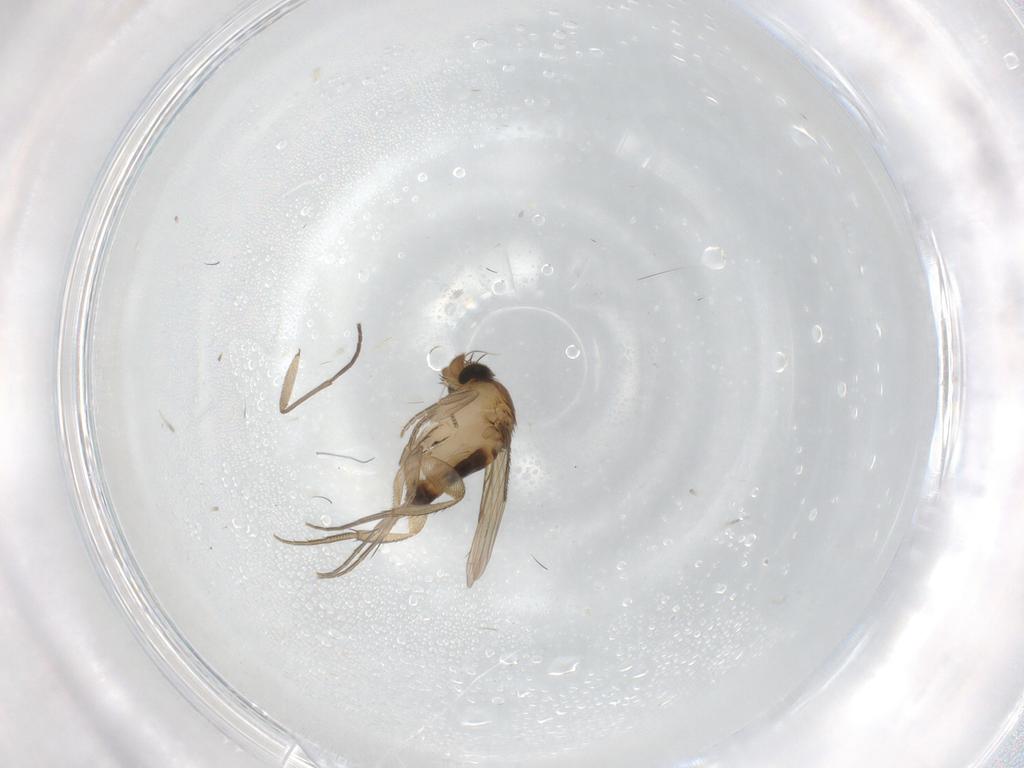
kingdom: Animalia
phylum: Arthropoda
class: Insecta
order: Diptera
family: Phoridae
